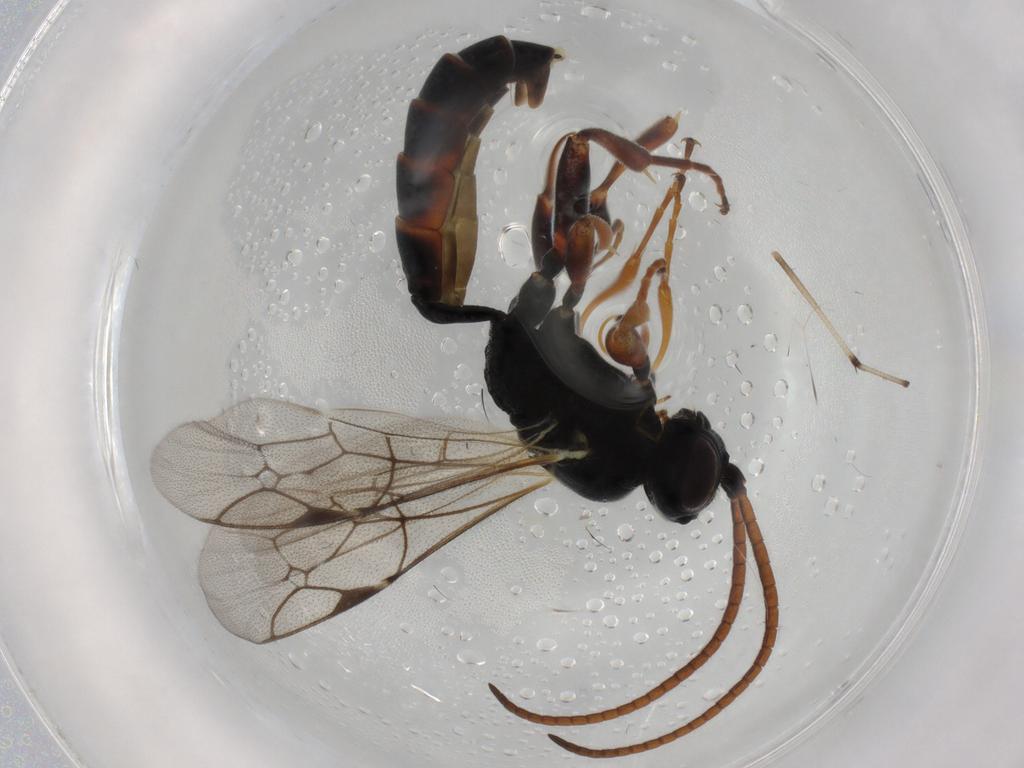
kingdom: Animalia
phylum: Arthropoda
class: Insecta
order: Hymenoptera
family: Ichneumonidae
